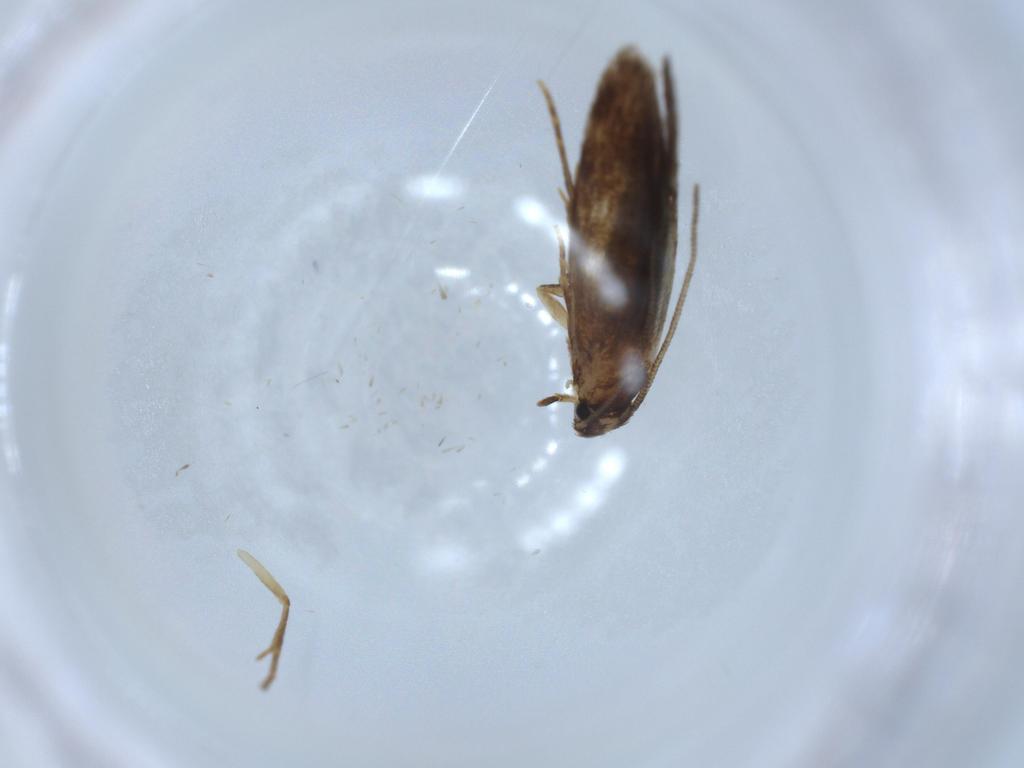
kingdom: Animalia
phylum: Arthropoda
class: Insecta
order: Lepidoptera
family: Tineidae
